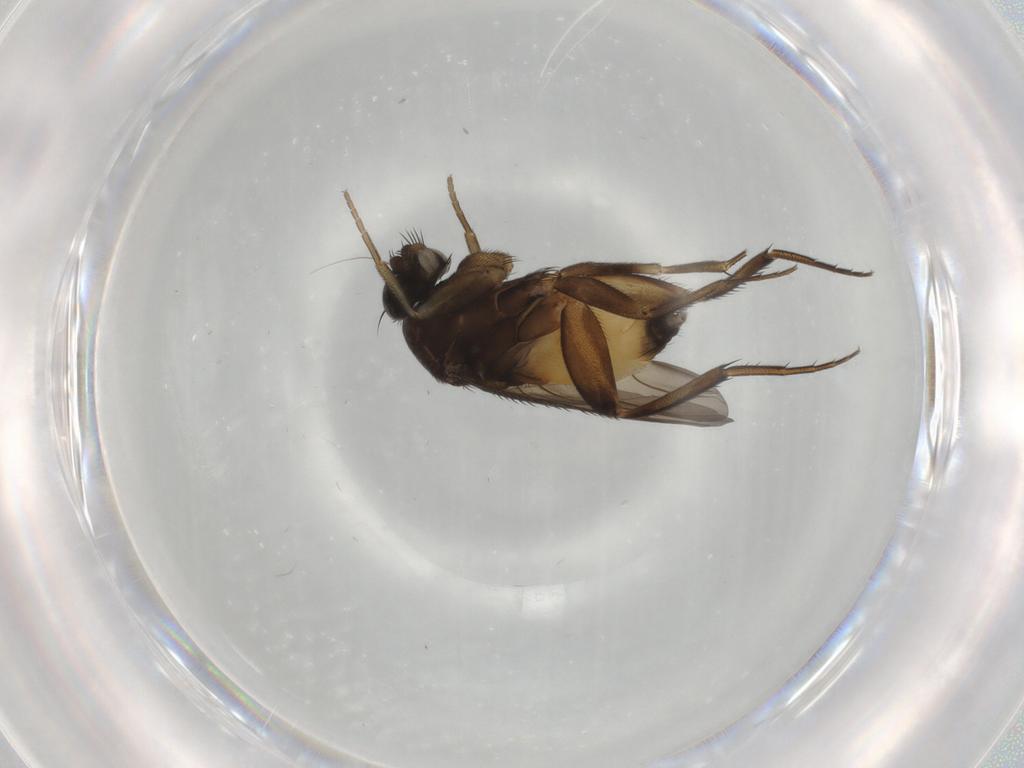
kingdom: Animalia
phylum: Arthropoda
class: Insecta
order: Diptera
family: Phoridae
